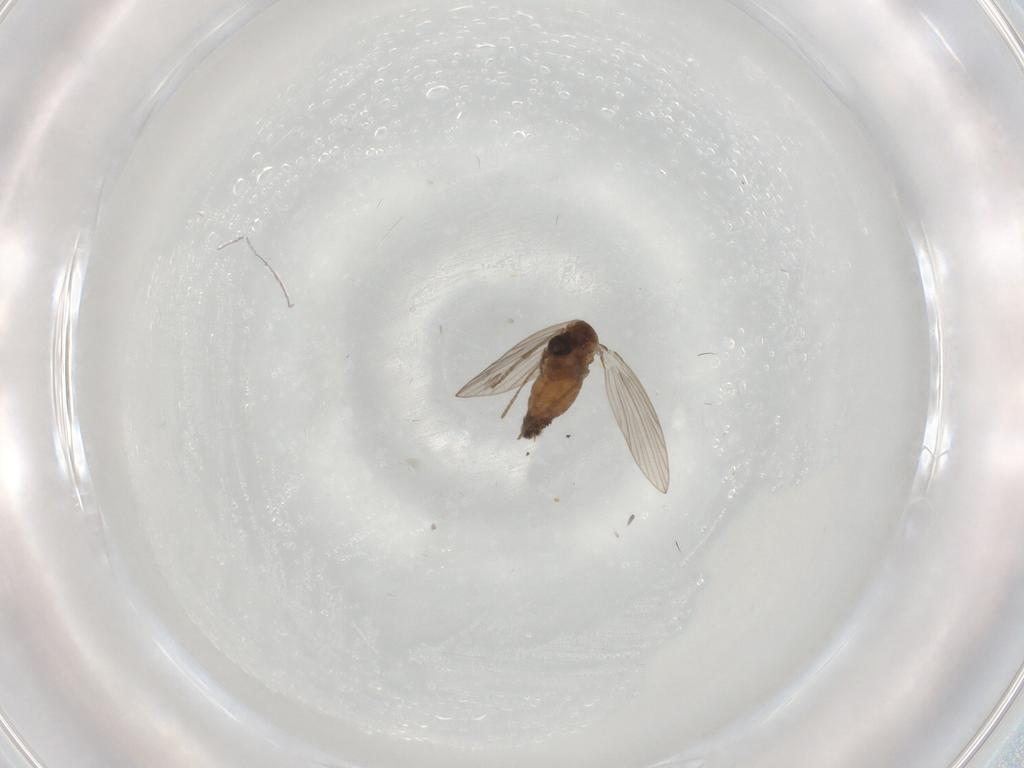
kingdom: Animalia
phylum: Arthropoda
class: Insecta
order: Diptera
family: Psychodidae
